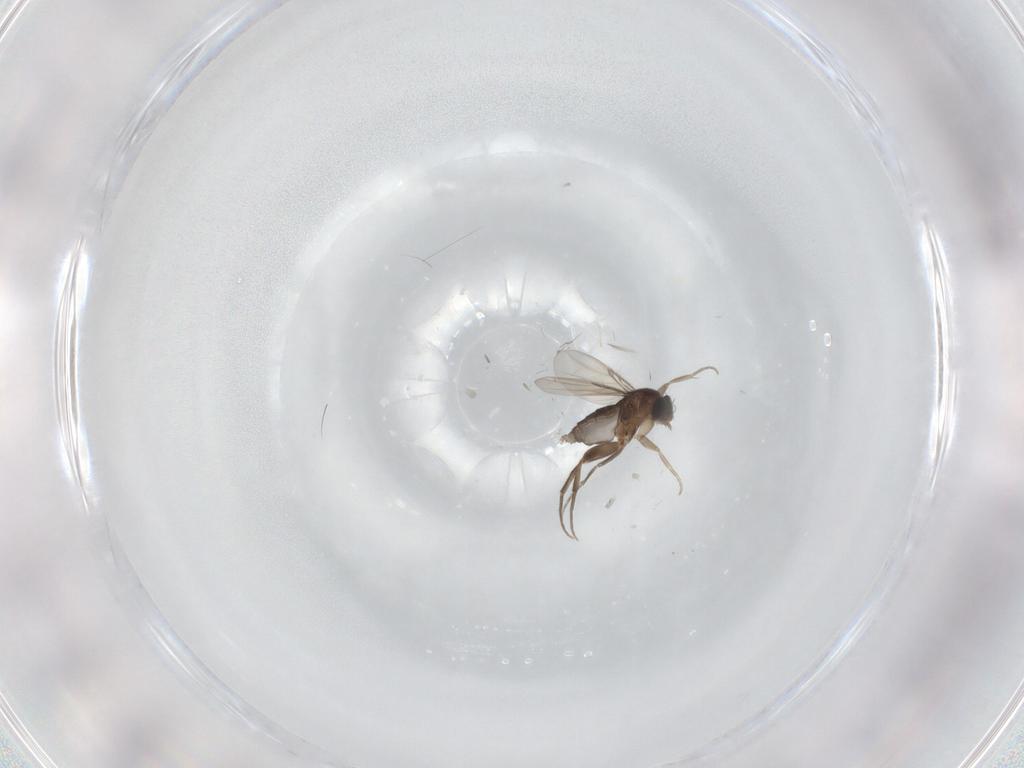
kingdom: Animalia
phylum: Arthropoda
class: Insecta
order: Diptera
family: Phoridae
